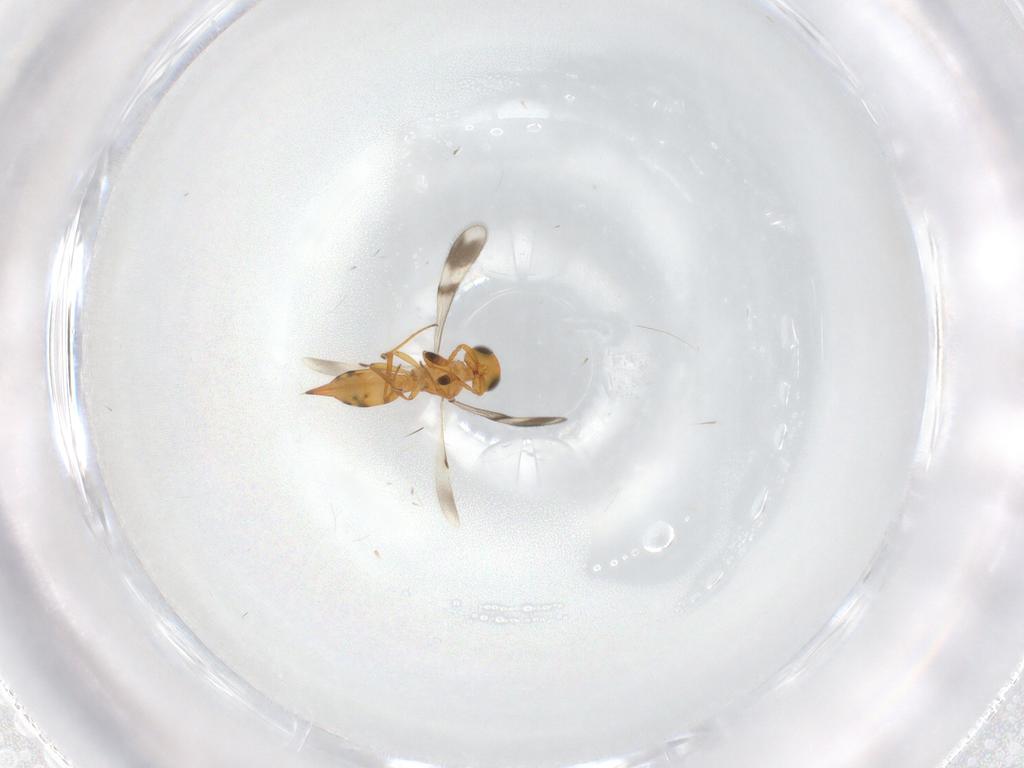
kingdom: Animalia
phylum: Arthropoda
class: Insecta
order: Hymenoptera
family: Scelionidae
